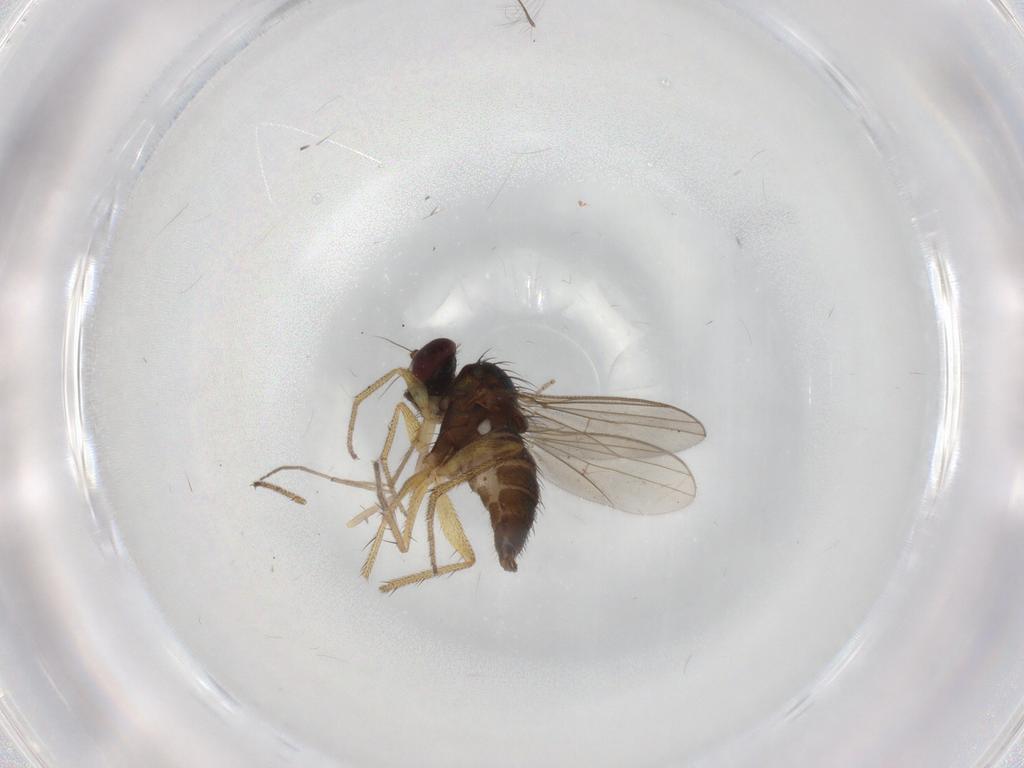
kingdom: Animalia
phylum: Arthropoda
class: Insecta
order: Diptera
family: Chironomidae
